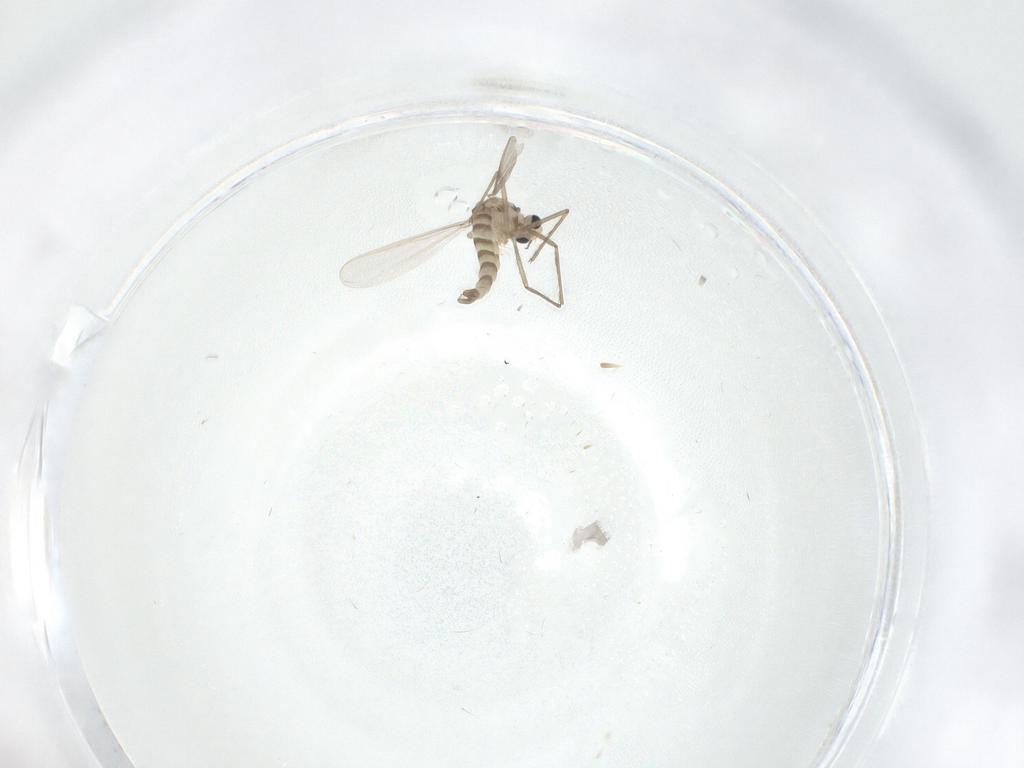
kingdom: Animalia
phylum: Arthropoda
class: Insecta
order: Diptera
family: Chironomidae
